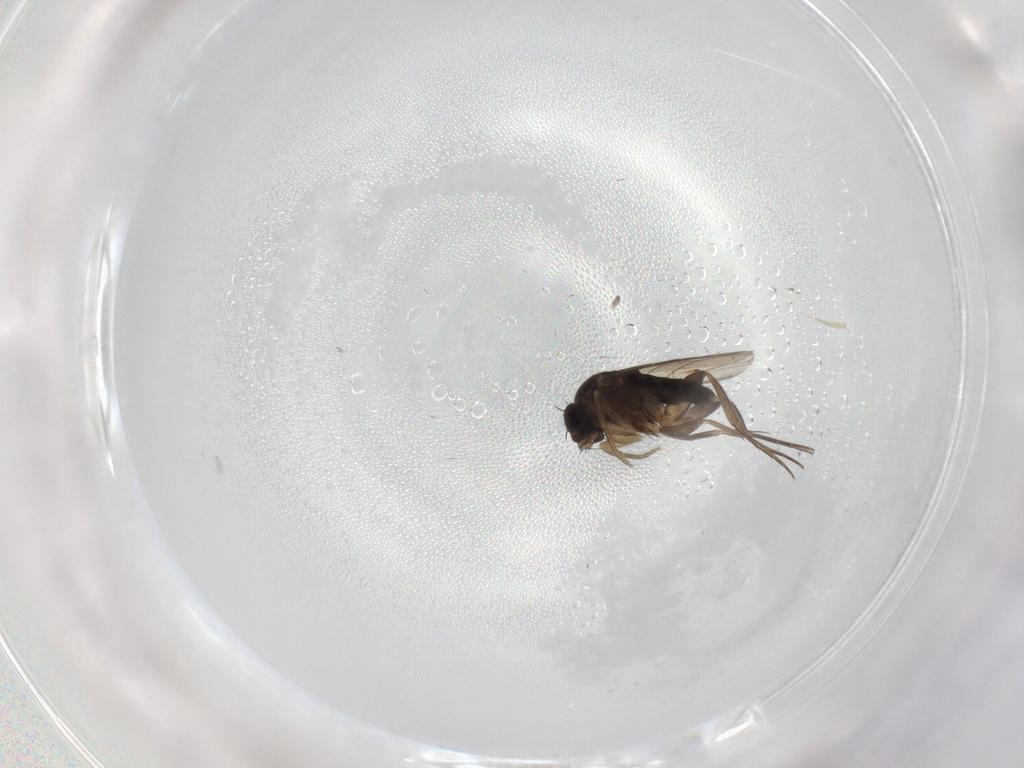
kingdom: Animalia
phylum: Arthropoda
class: Insecta
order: Diptera
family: Phoridae
